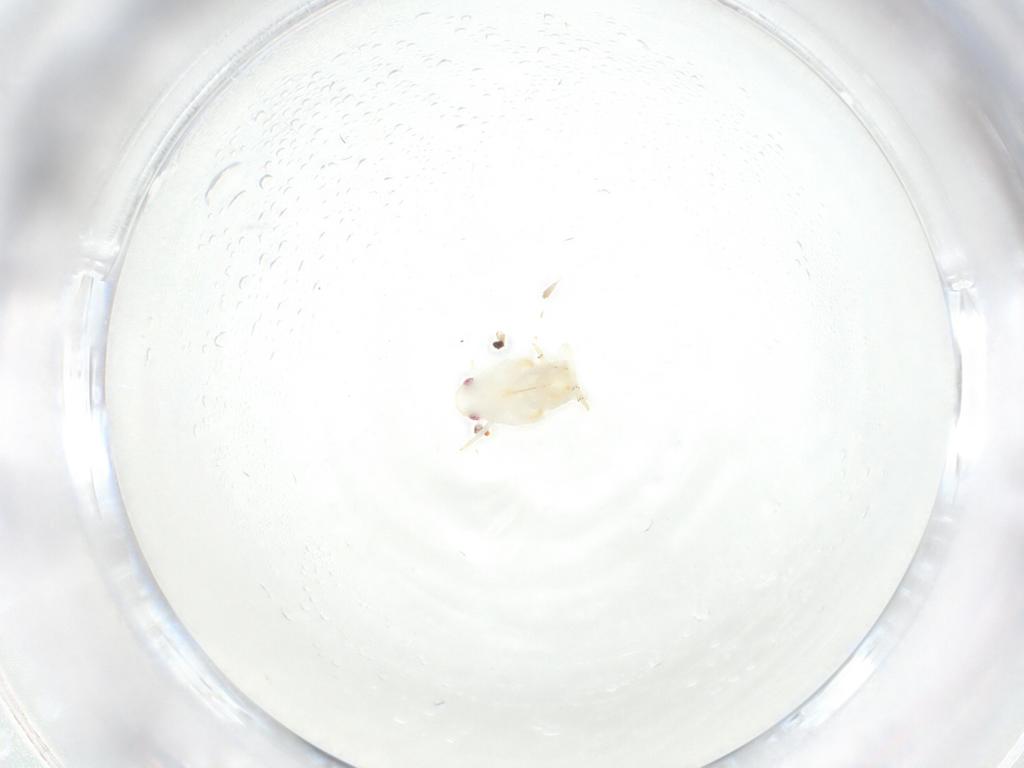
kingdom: Animalia
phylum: Arthropoda
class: Insecta
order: Hemiptera
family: Flatidae
